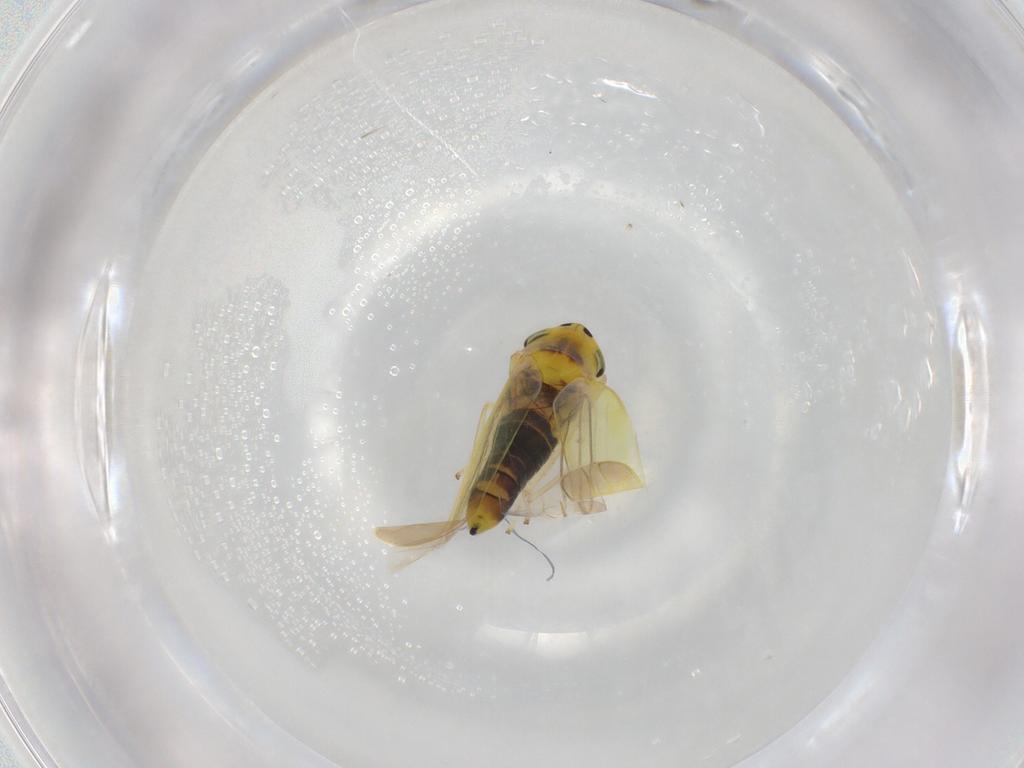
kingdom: Animalia
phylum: Arthropoda
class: Insecta
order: Hemiptera
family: Cicadellidae
